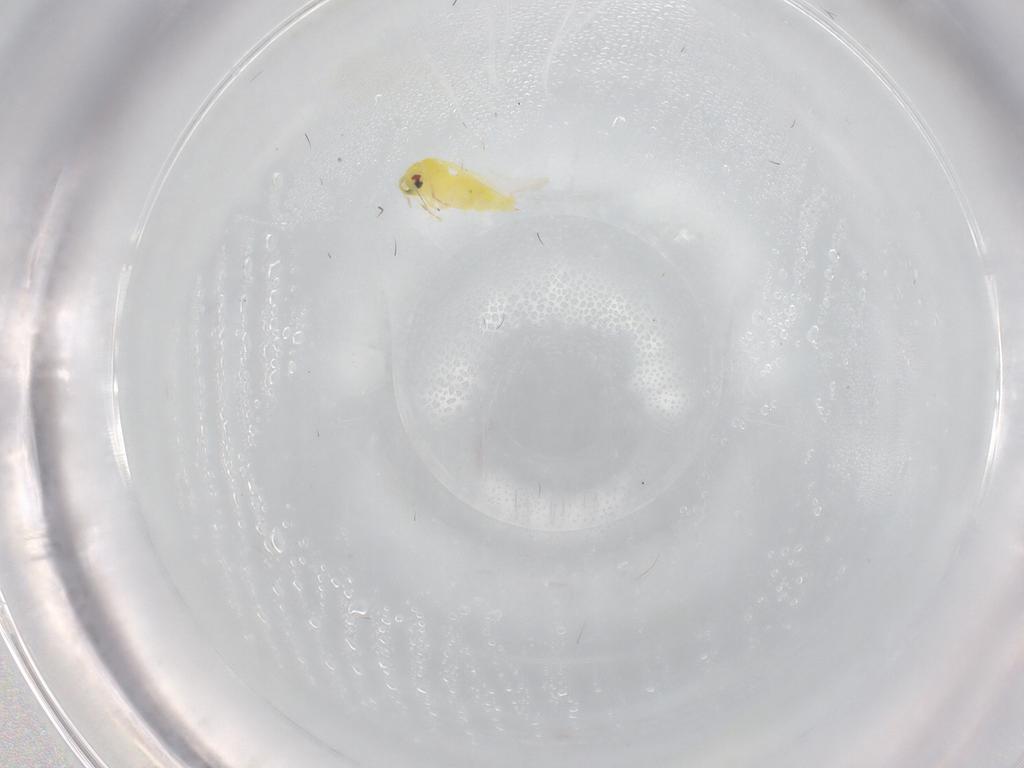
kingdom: Animalia
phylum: Arthropoda
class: Insecta
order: Hemiptera
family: Aleyrodidae
